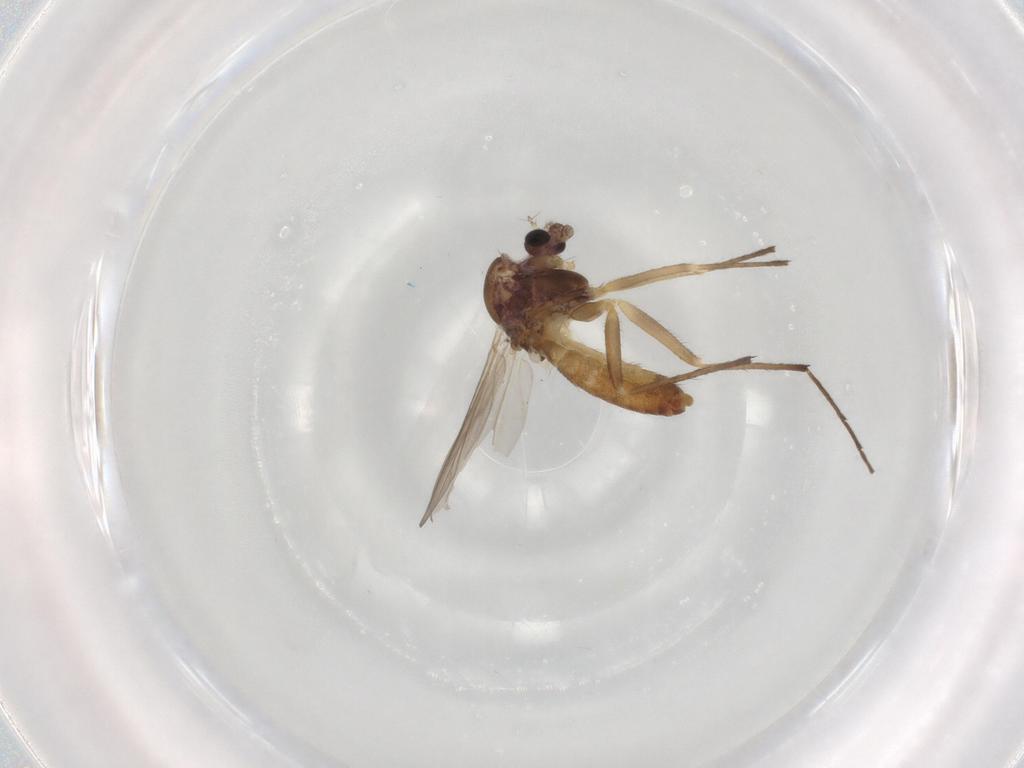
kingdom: Animalia
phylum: Arthropoda
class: Insecta
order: Diptera
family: Chironomidae
